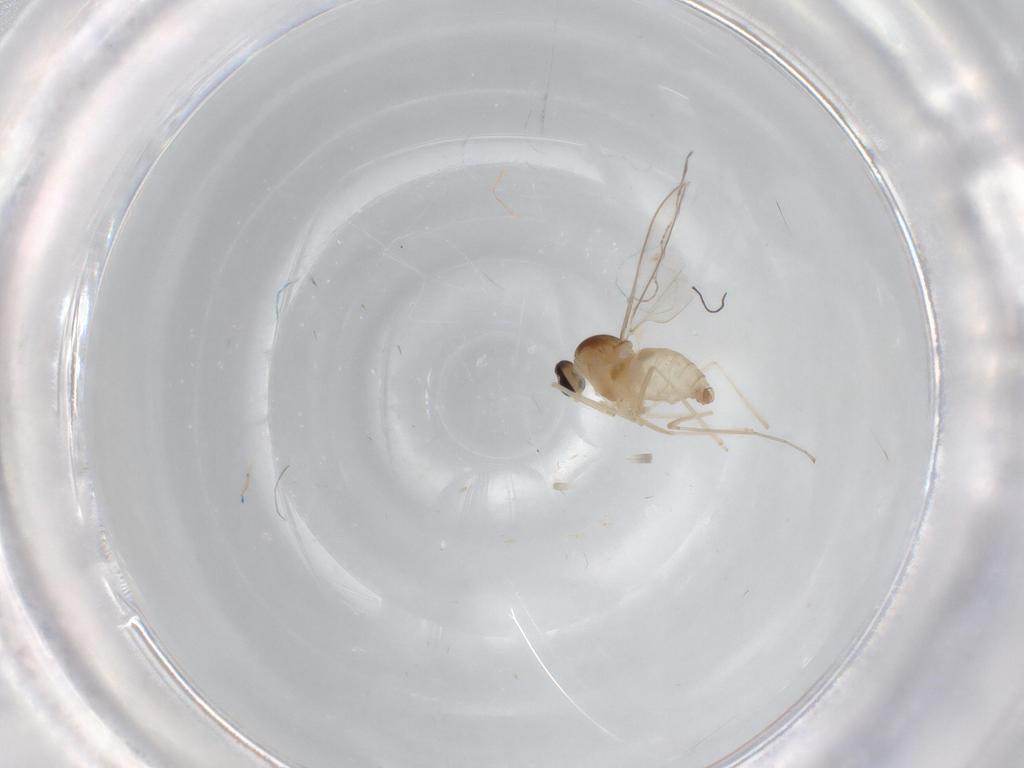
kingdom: Animalia
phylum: Arthropoda
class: Insecta
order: Diptera
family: Cecidomyiidae
